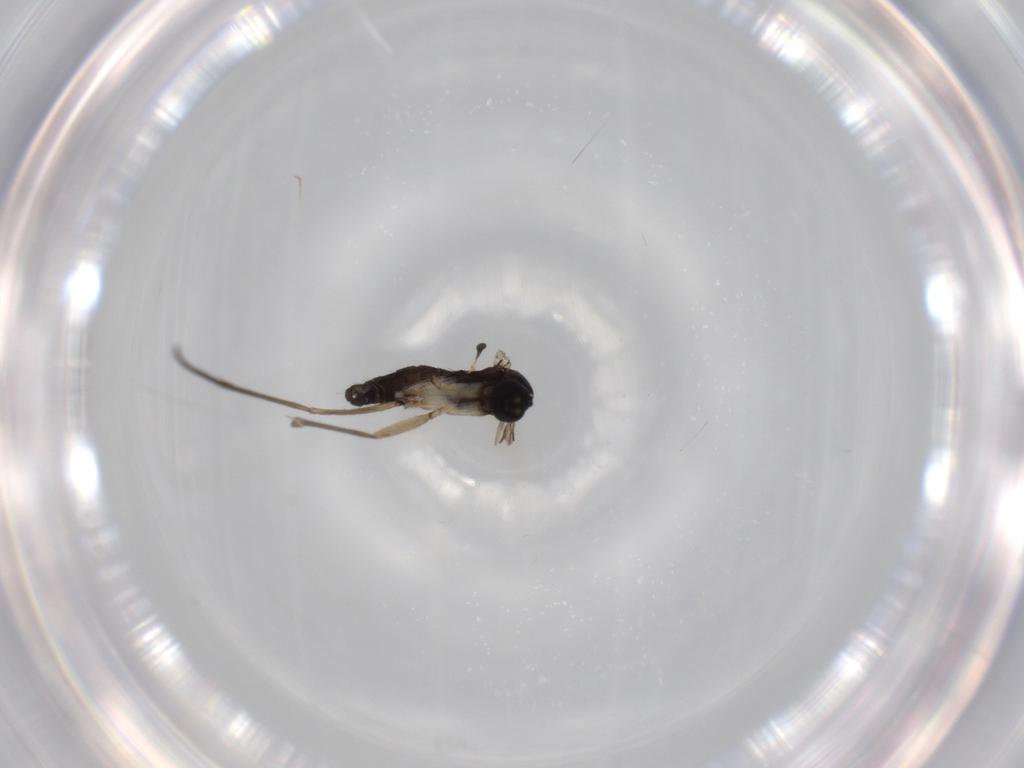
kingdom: Animalia
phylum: Arthropoda
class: Insecta
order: Diptera
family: Sciaridae
